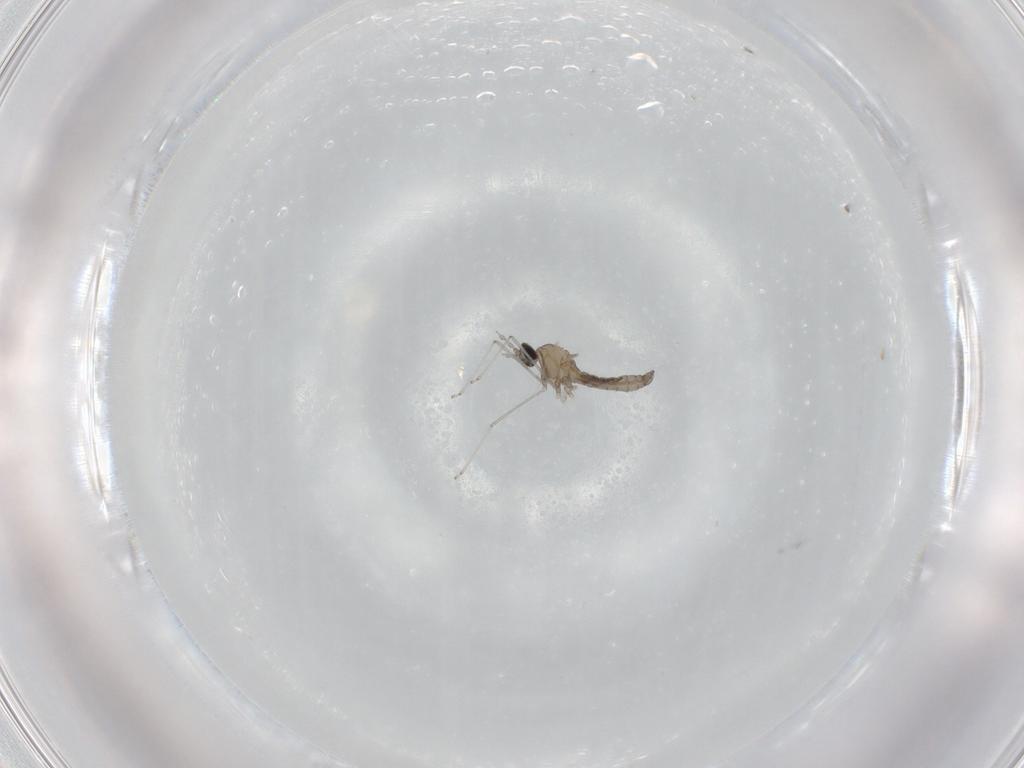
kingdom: Animalia
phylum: Arthropoda
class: Insecta
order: Diptera
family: Cecidomyiidae
